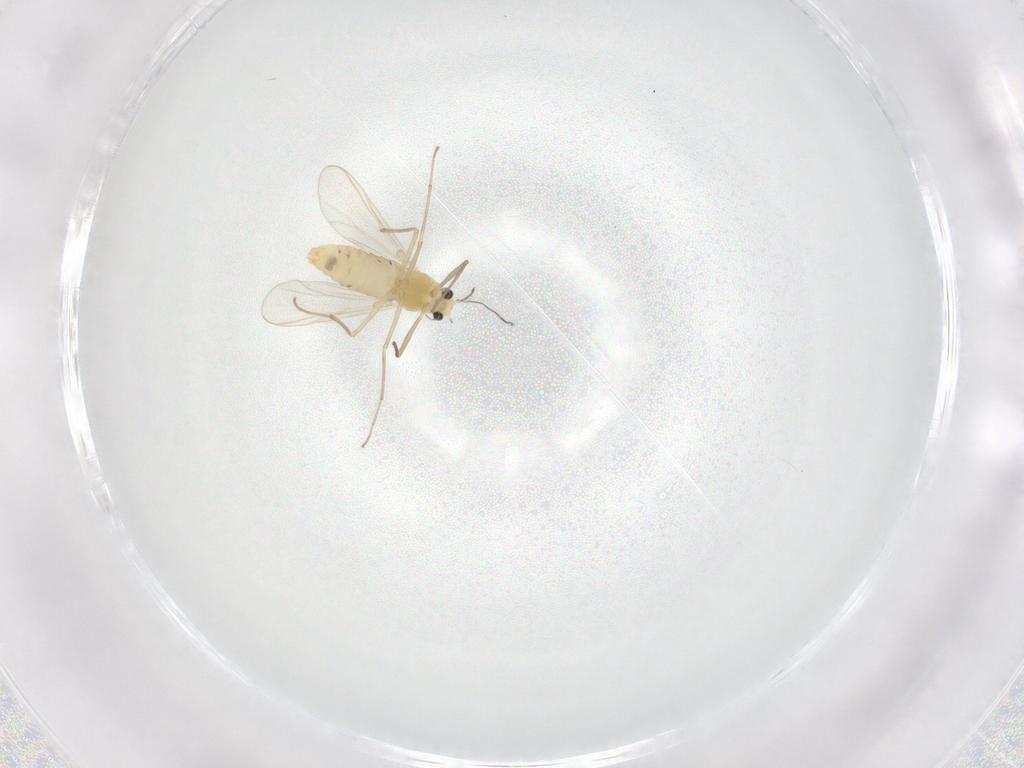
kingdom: Animalia
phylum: Arthropoda
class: Insecta
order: Diptera
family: Chironomidae
